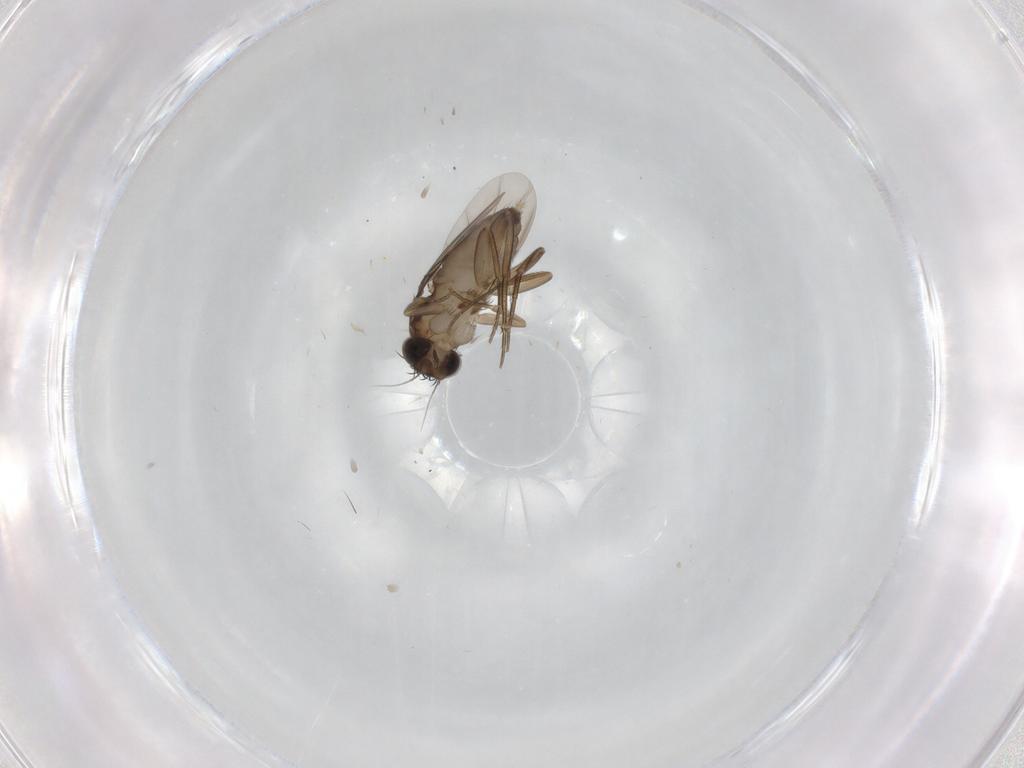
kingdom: Animalia
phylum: Arthropoda
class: Insecta
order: Diptera
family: Phoridae
